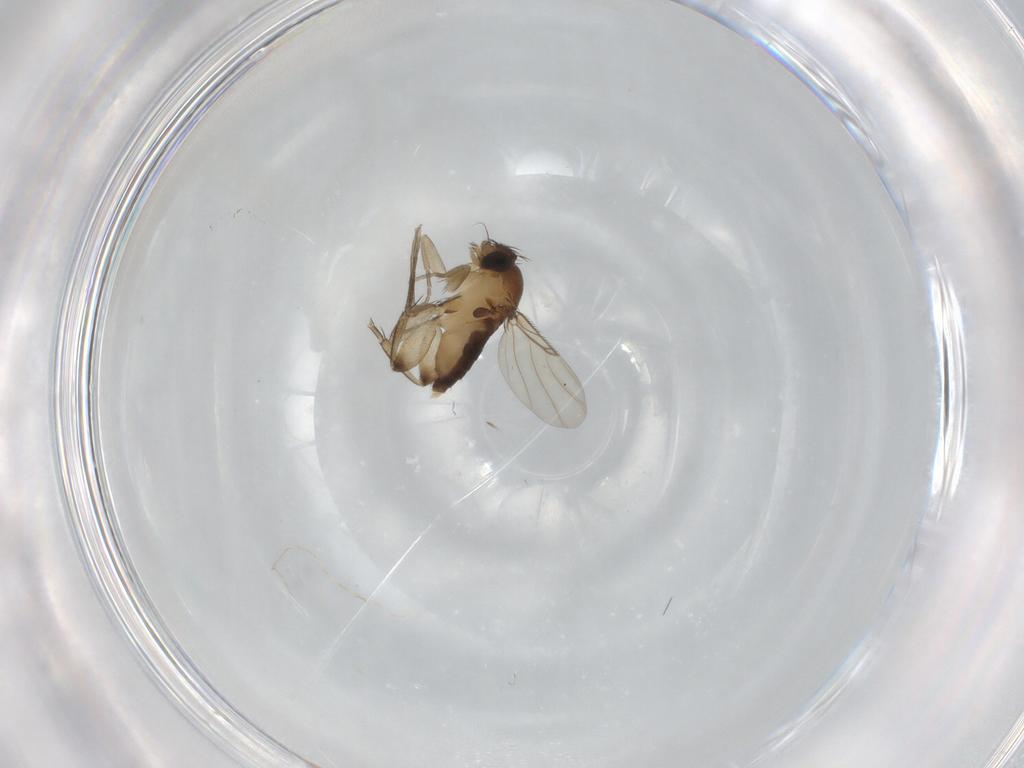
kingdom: Animalia
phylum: Arthropoda
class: Insecta
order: Diptera
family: Phoridae
